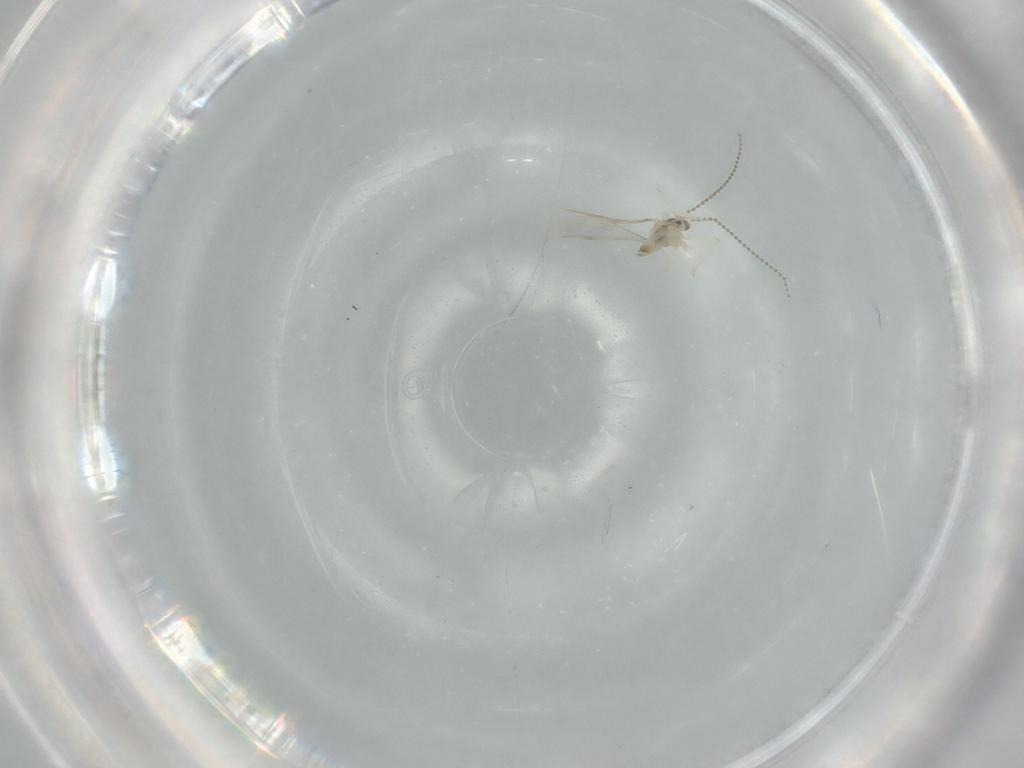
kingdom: Animalia
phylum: Arthropoda
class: Insecta
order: Diptera
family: Cecidomyiidae
